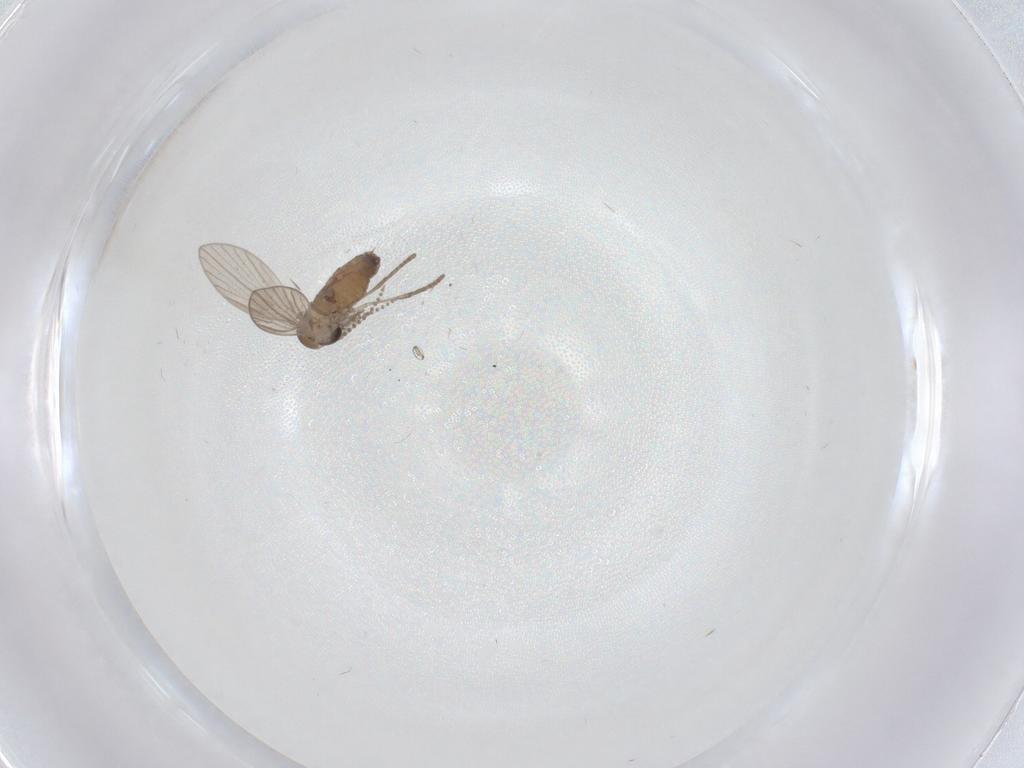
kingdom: Animalia
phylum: Arthropoda
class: Insecta
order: Diptera
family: Psychodidae
